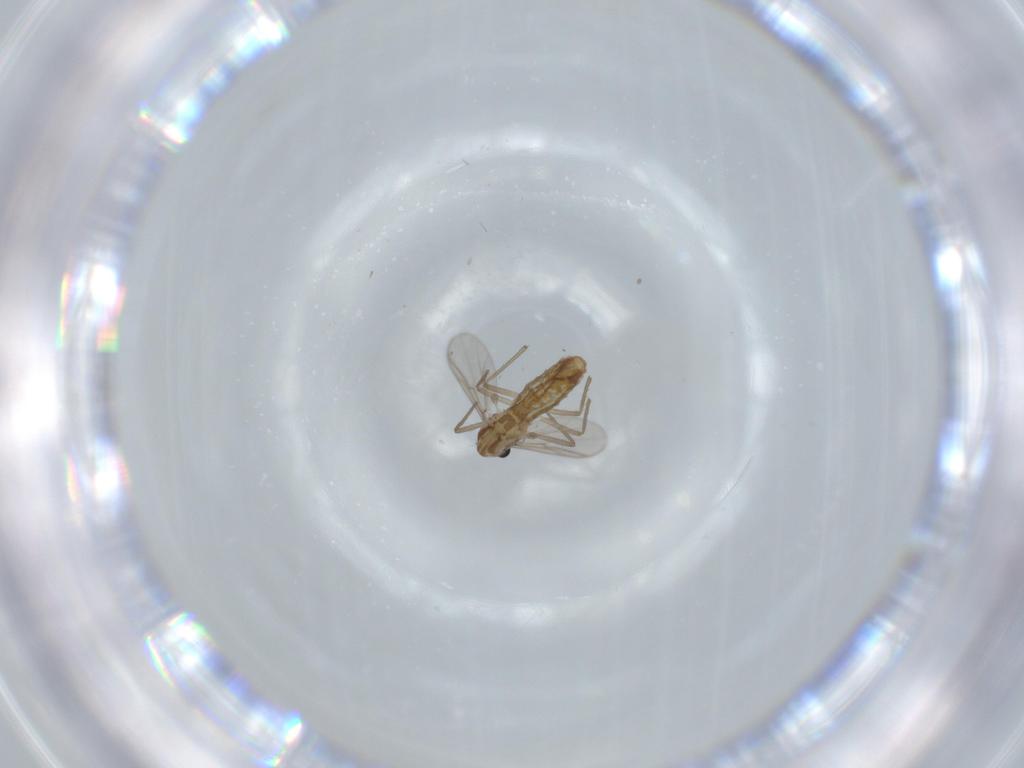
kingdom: Animalia
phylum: Arthropoda
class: Insecta
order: Diptera
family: Chironomidae
